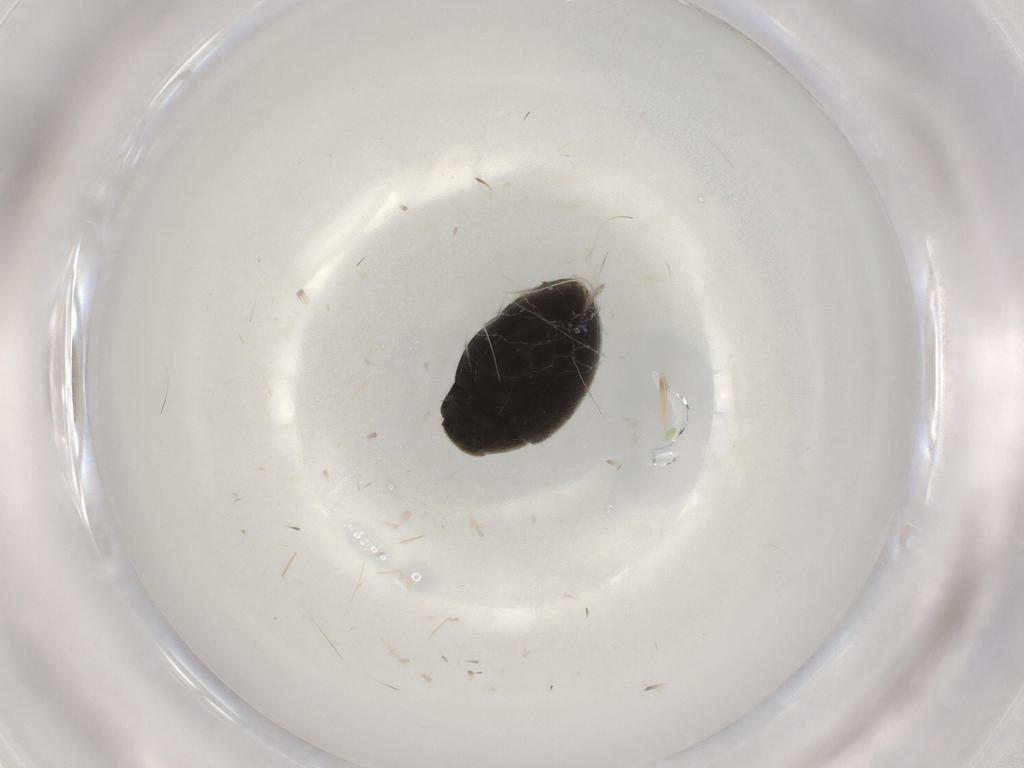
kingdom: Animalia
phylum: Arthropoda
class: Insecta
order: Coleoptera
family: Limnichidae
